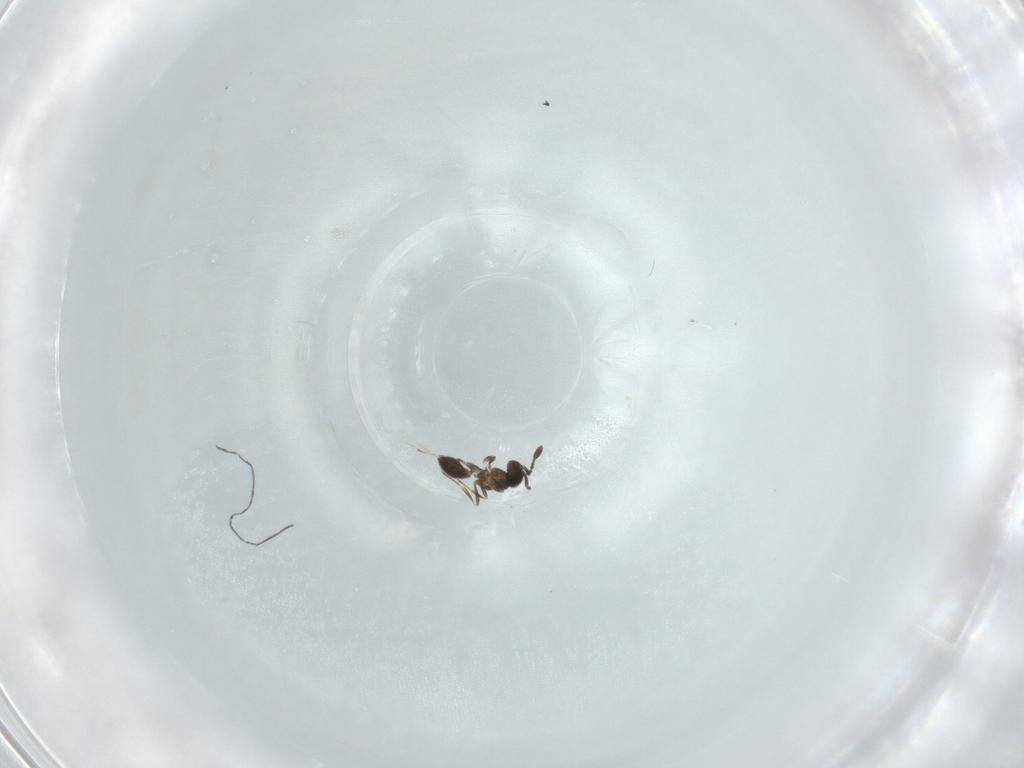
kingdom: Animalia
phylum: Arthropoda
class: Insecta
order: Hymenoptera
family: Scelionidae
